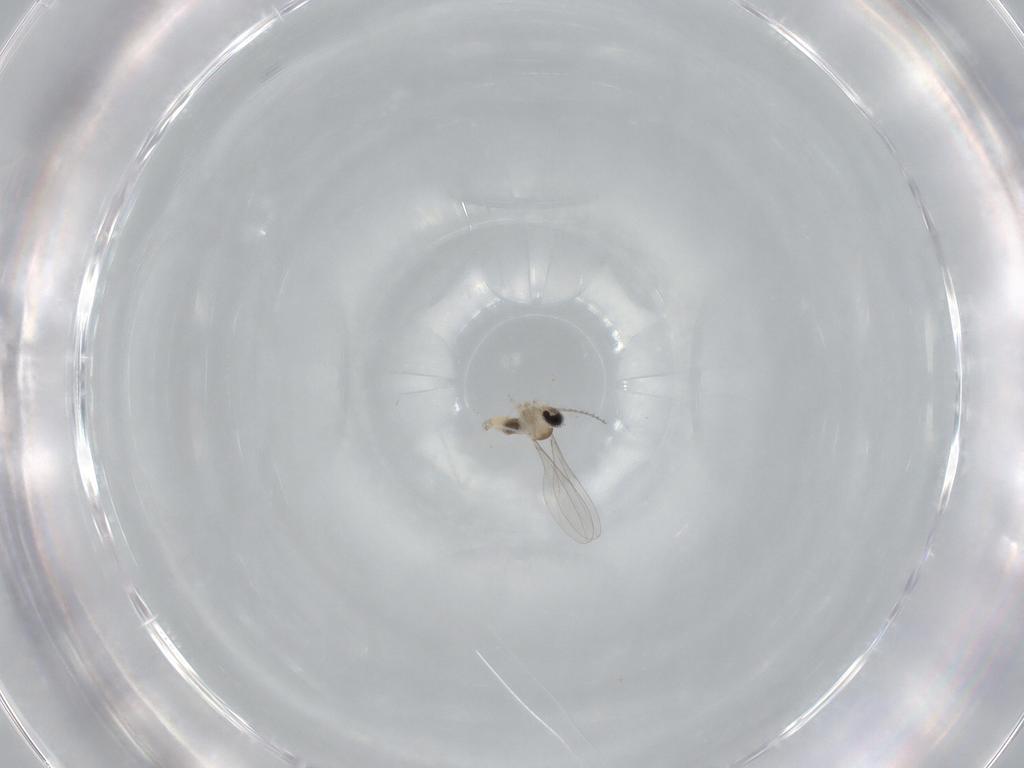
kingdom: Animalia
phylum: Arthropoda
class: Insecta
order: Diptera
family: Cecidomyiidae
